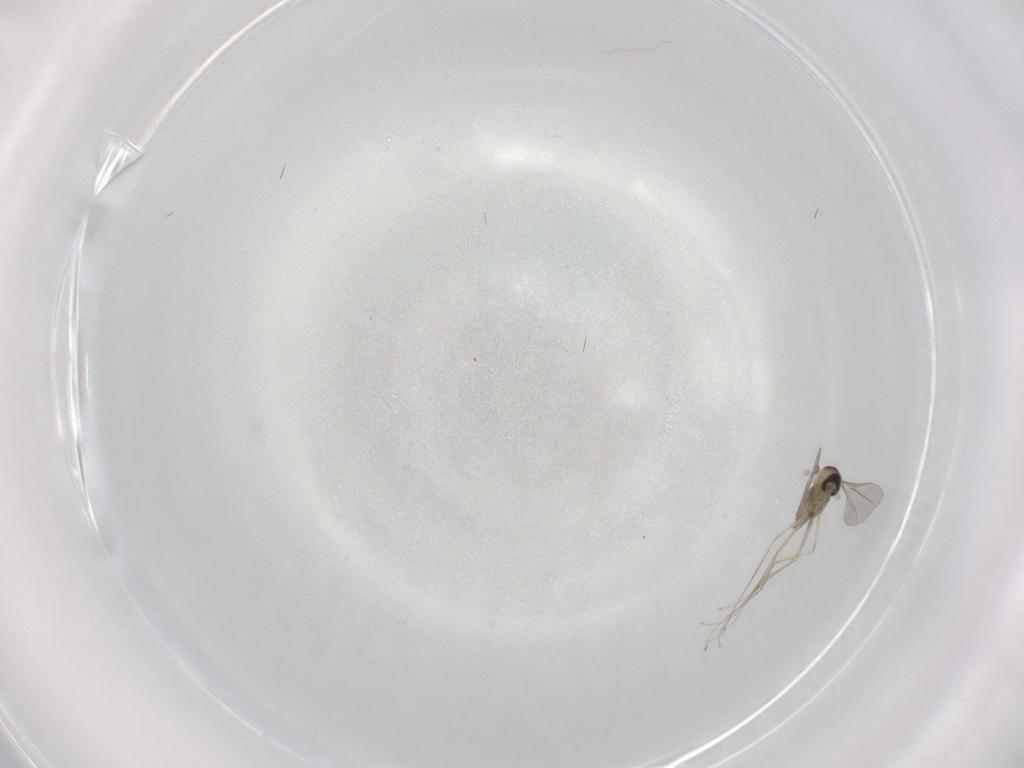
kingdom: Animalia
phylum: Arthropoda
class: Insecta
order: Diptera
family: Cecidomyiidae
